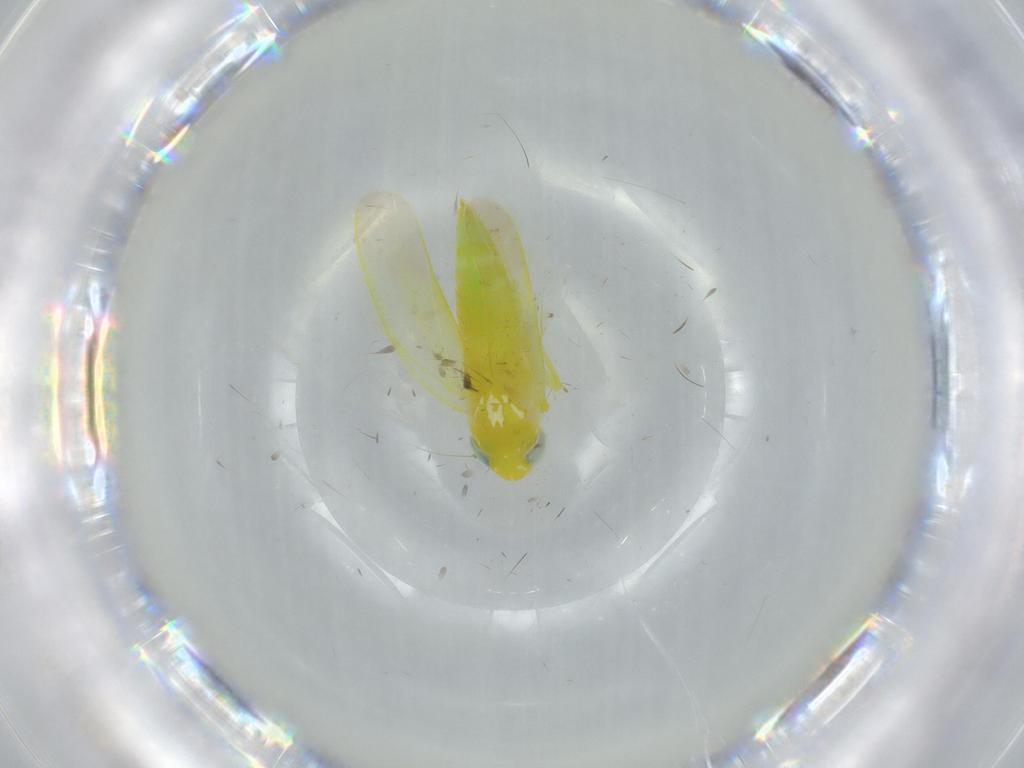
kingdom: Animalia
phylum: Arthropoda
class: Insecta
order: Hemiptera
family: Cicadellidae
